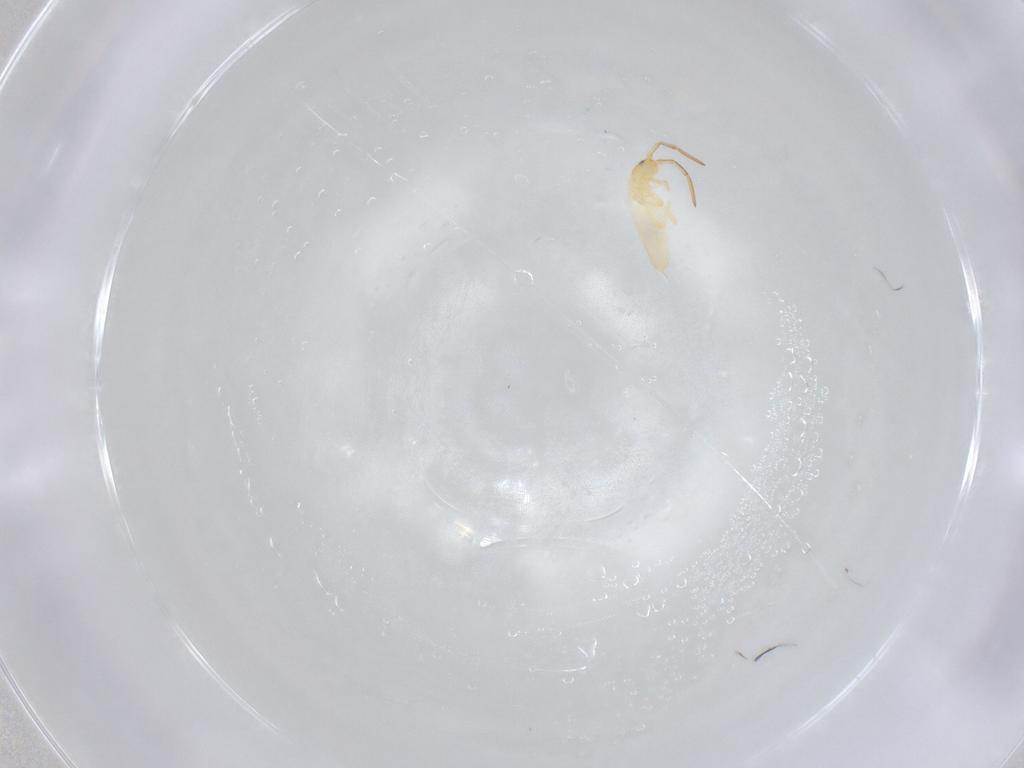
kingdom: Animalia
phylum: Arthropoda
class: Collembola
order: Entomobryomorpha
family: Entomobryidae
